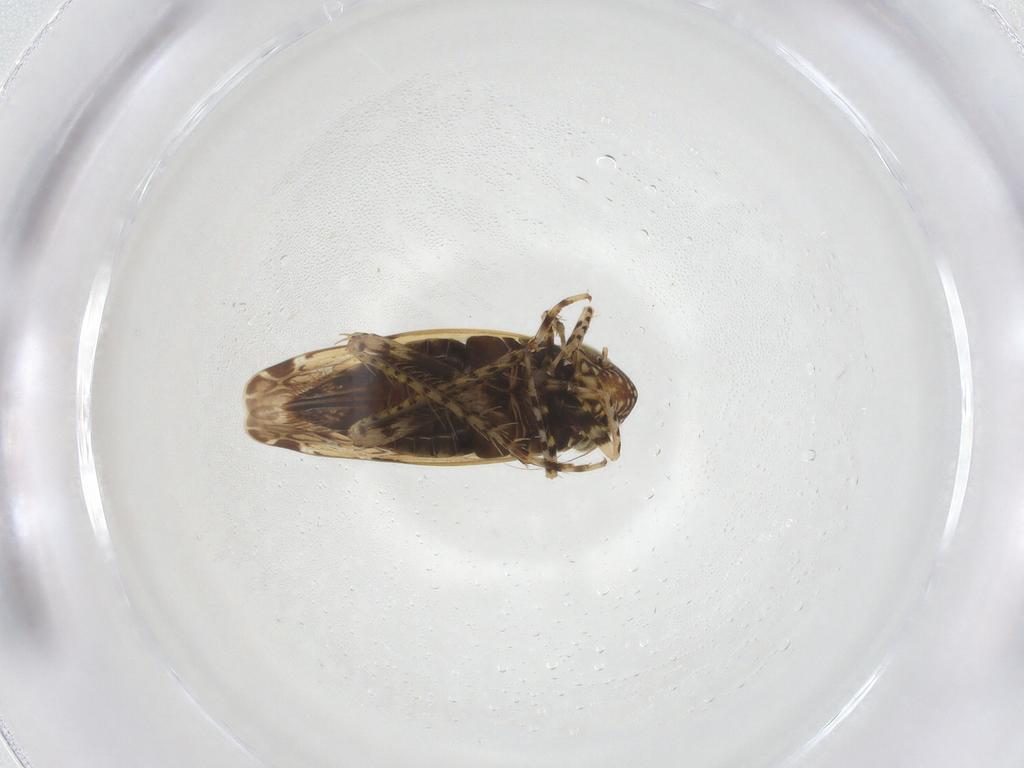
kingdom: Animalia
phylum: Arthropoda
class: Insecta
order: Hemiptera
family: Cicadellidae
